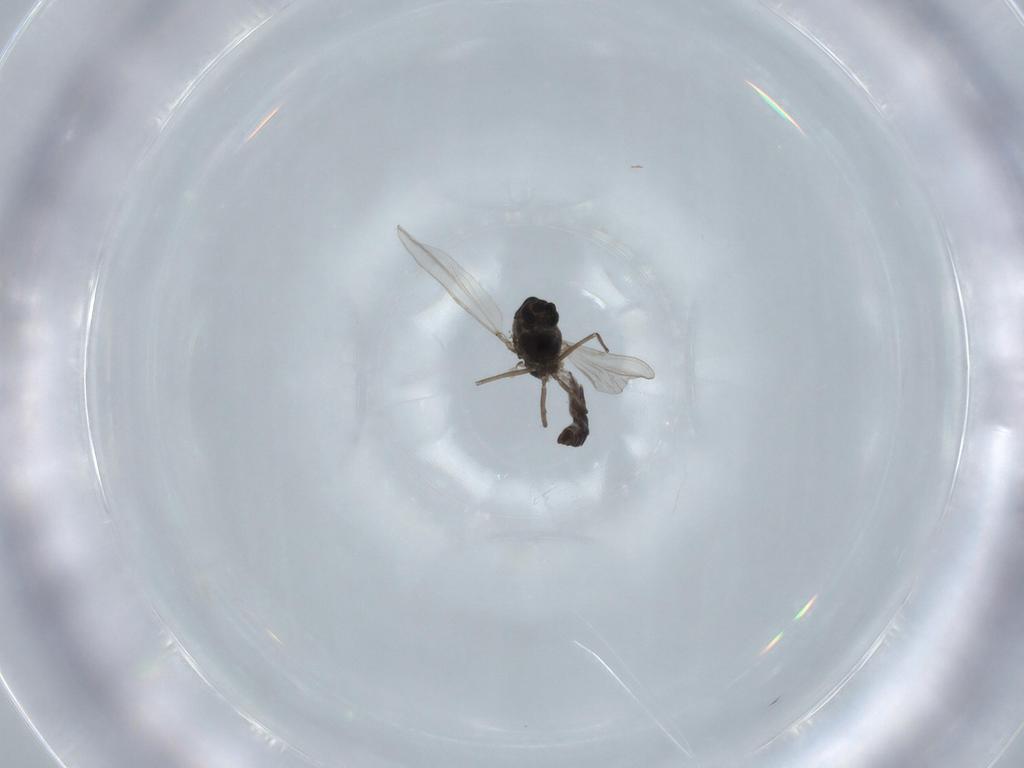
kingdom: Animalia
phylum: Arthropoda
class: Insecta
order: Diptera
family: Chironomidae
